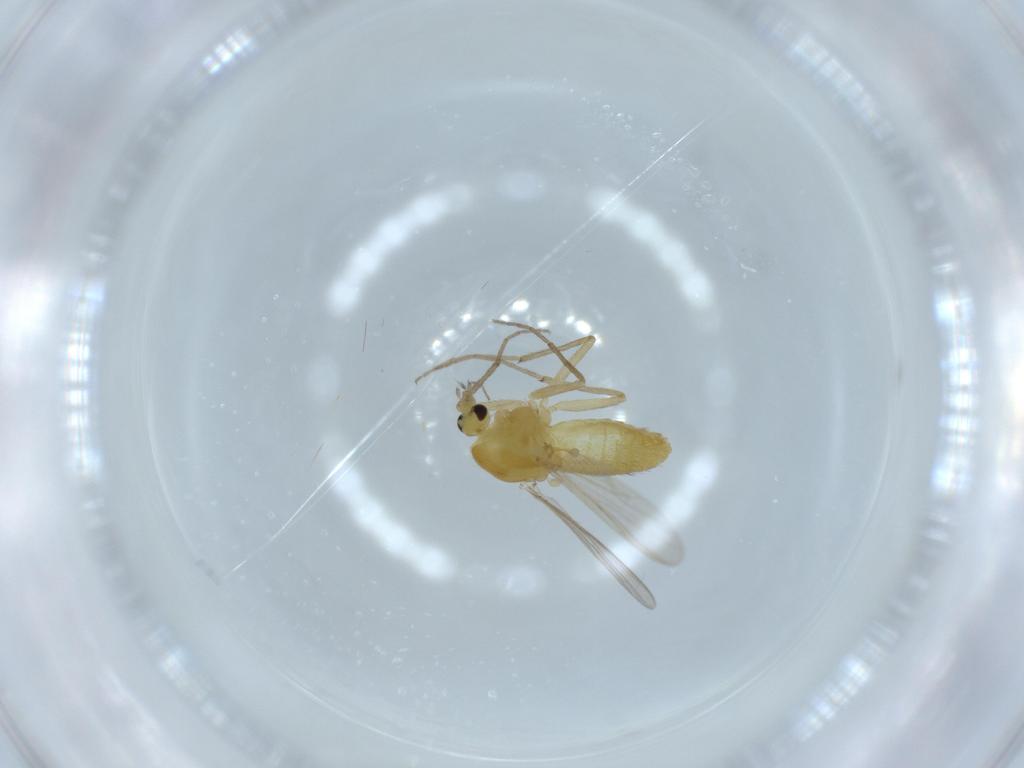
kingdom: Animalia
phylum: Arthropoda
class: Insecta
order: Diptera
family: Chironomidae
